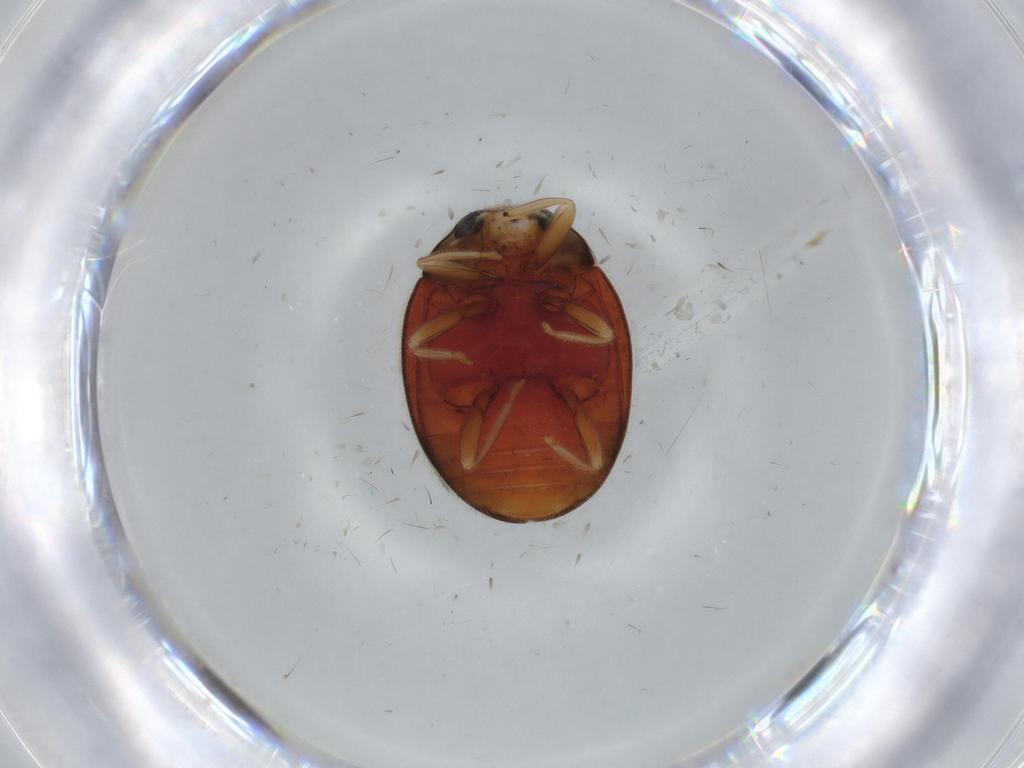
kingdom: Animalia
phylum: Arthropoda
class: Insecta
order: Coleoptera
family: Coccinellidae
